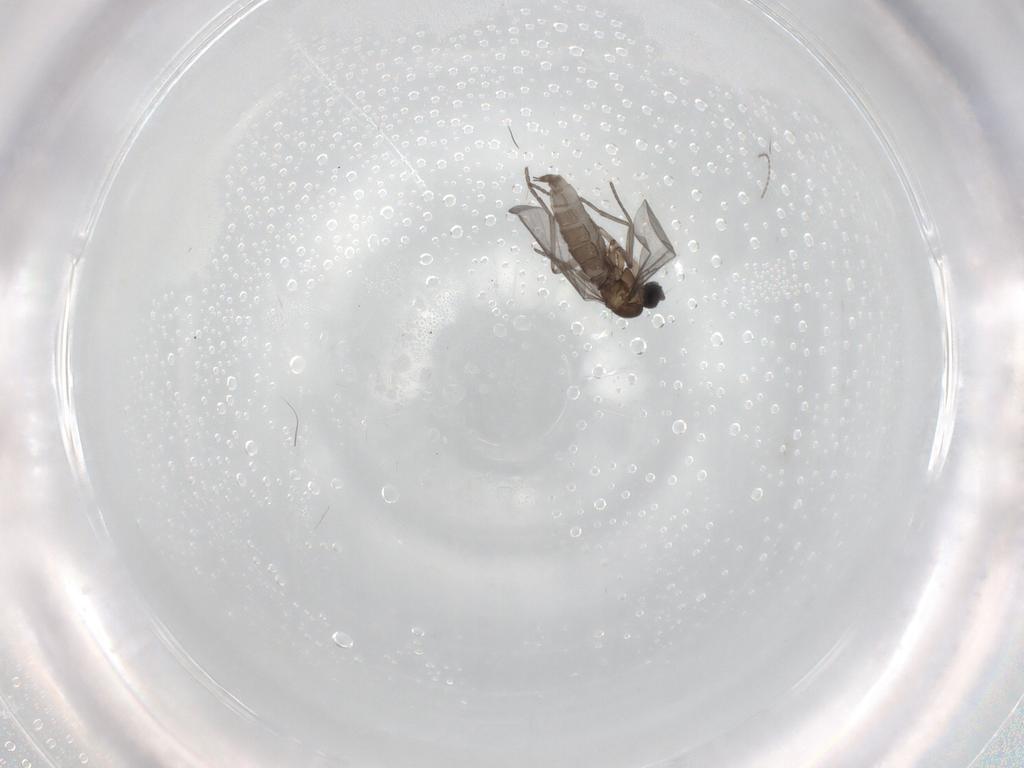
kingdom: Animalia
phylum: Arthropoda
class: Insecta
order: Diptera
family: Cecidomyiidae
